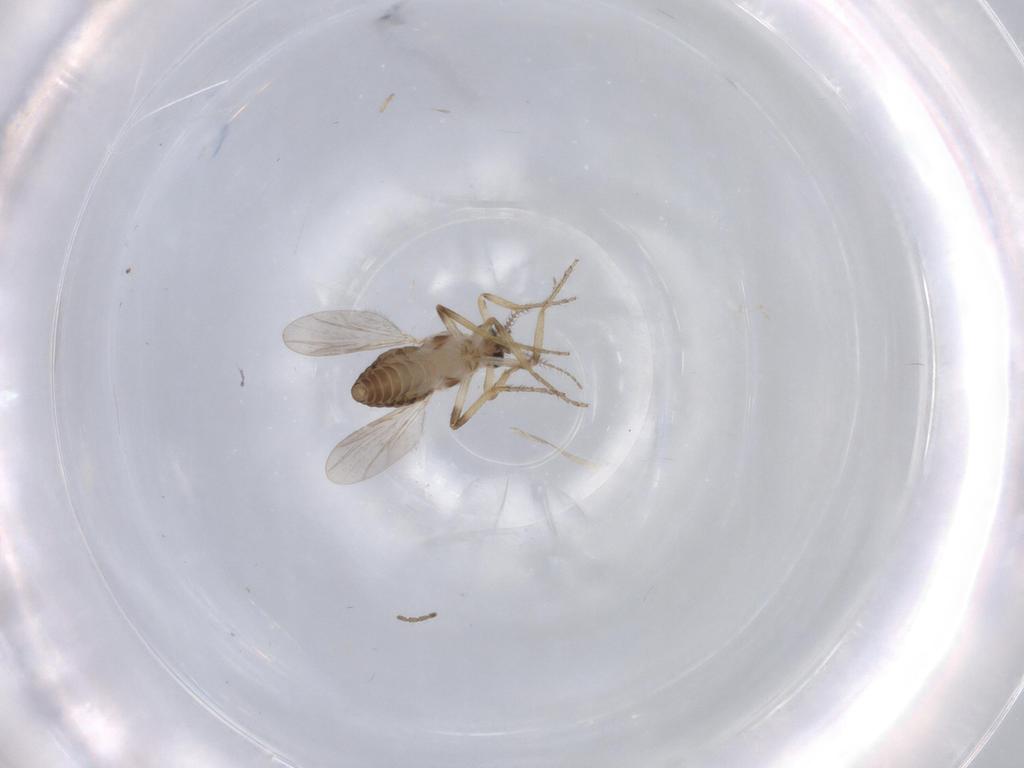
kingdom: Animalia
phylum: Arthropoda
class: Insecta
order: Diptera
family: Ceratopogonidae
